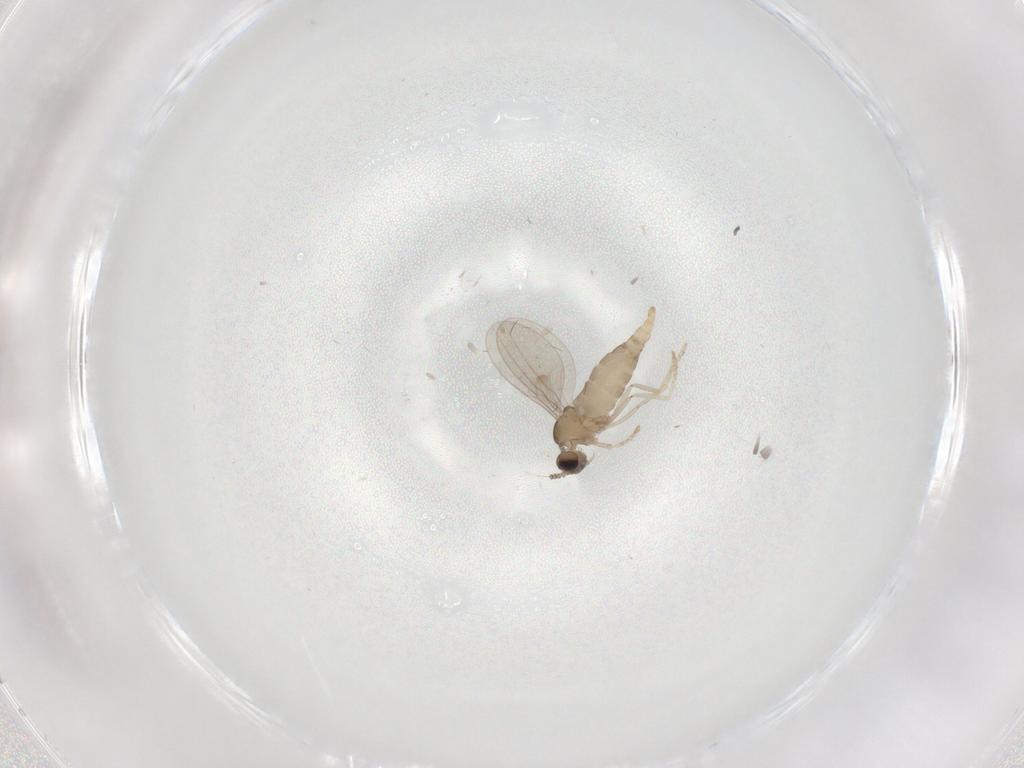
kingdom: Animalia
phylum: Arthropoda
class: Insecta
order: Diptera
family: Cecidomyiidae
